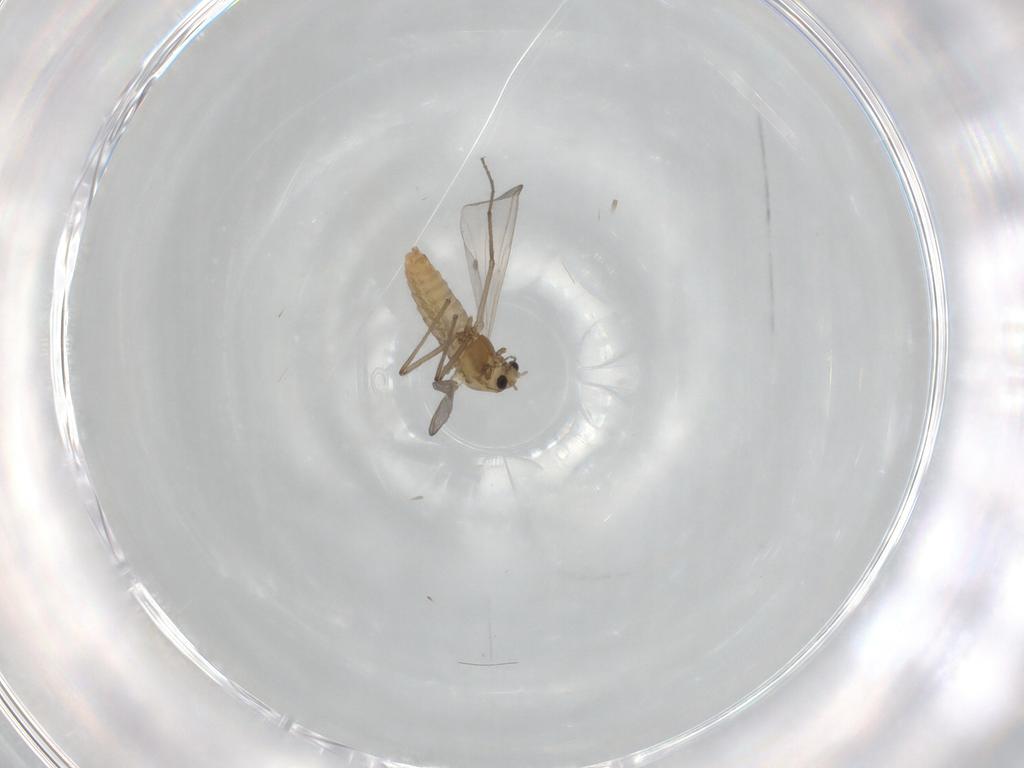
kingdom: Animalia
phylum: Arthropoda
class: Insecta
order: Diptera
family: Chironomidae
